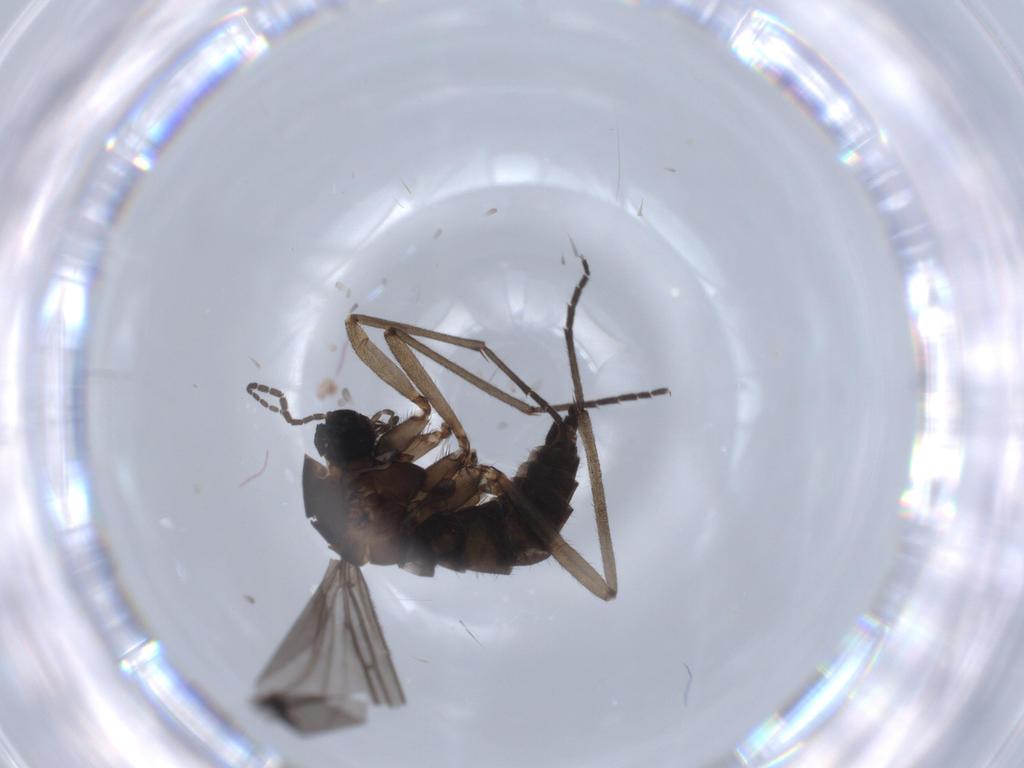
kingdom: Animalia
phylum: Arthropoda
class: Insecta
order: Diptera
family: Sciaridae
